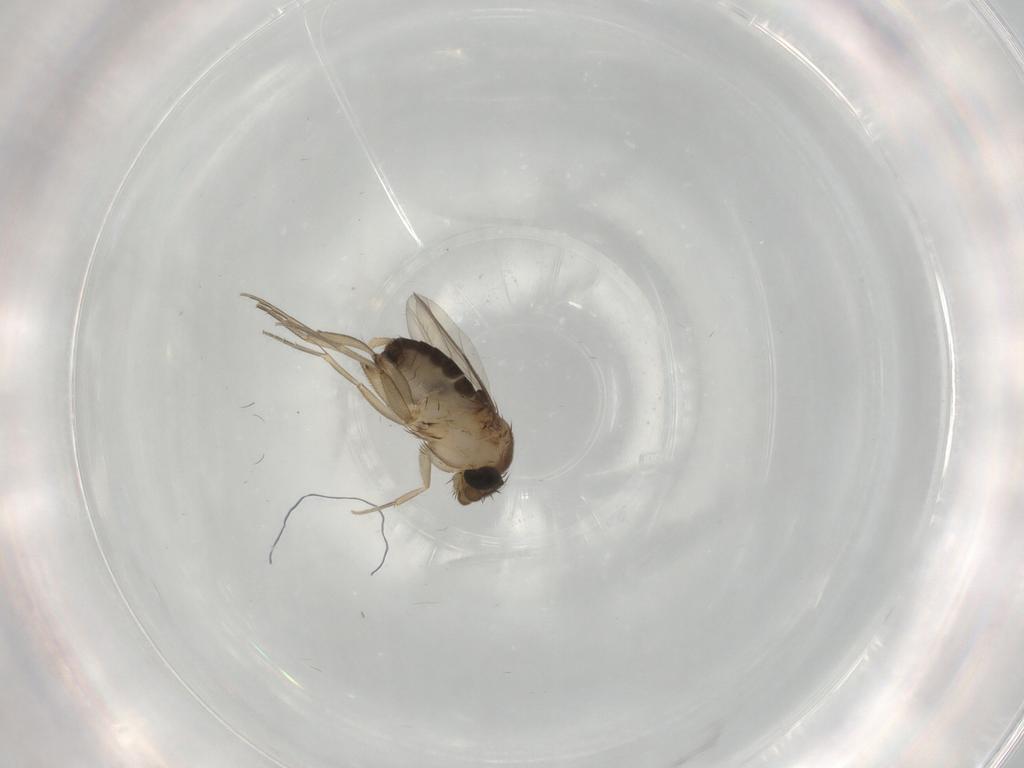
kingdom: Animalia
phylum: Arthropoda
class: Insecta
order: Diptera
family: Phoridae
